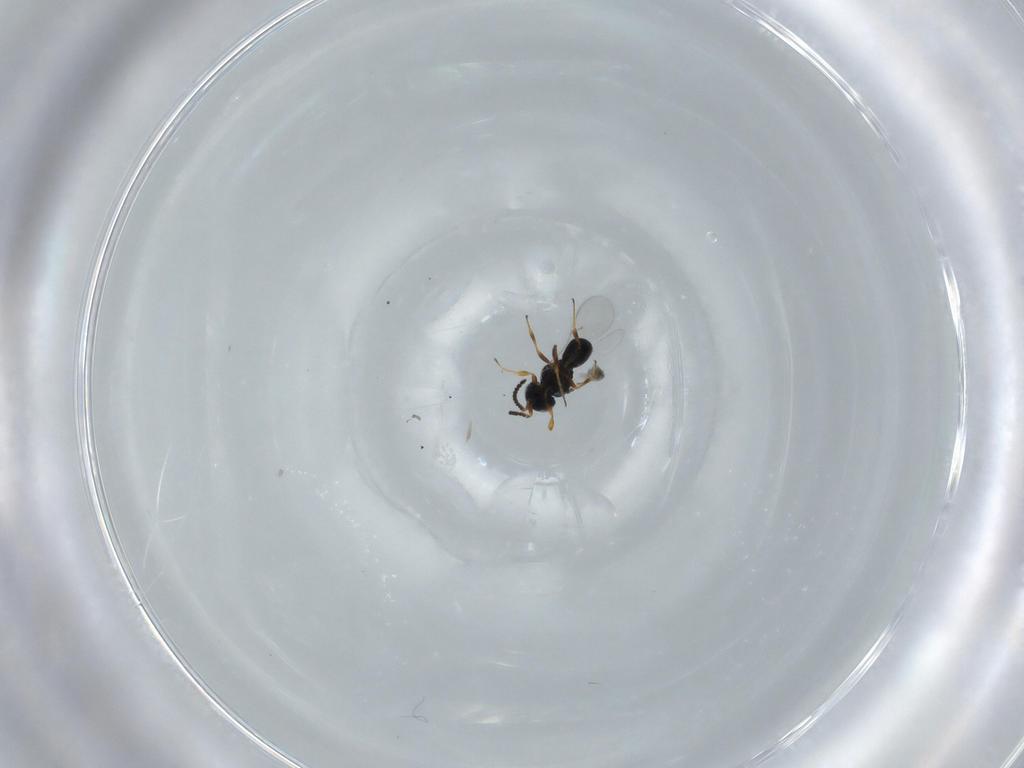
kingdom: Animalia
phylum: Arthropoda
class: Insecta
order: Hymenoptera
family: Scelionidae
